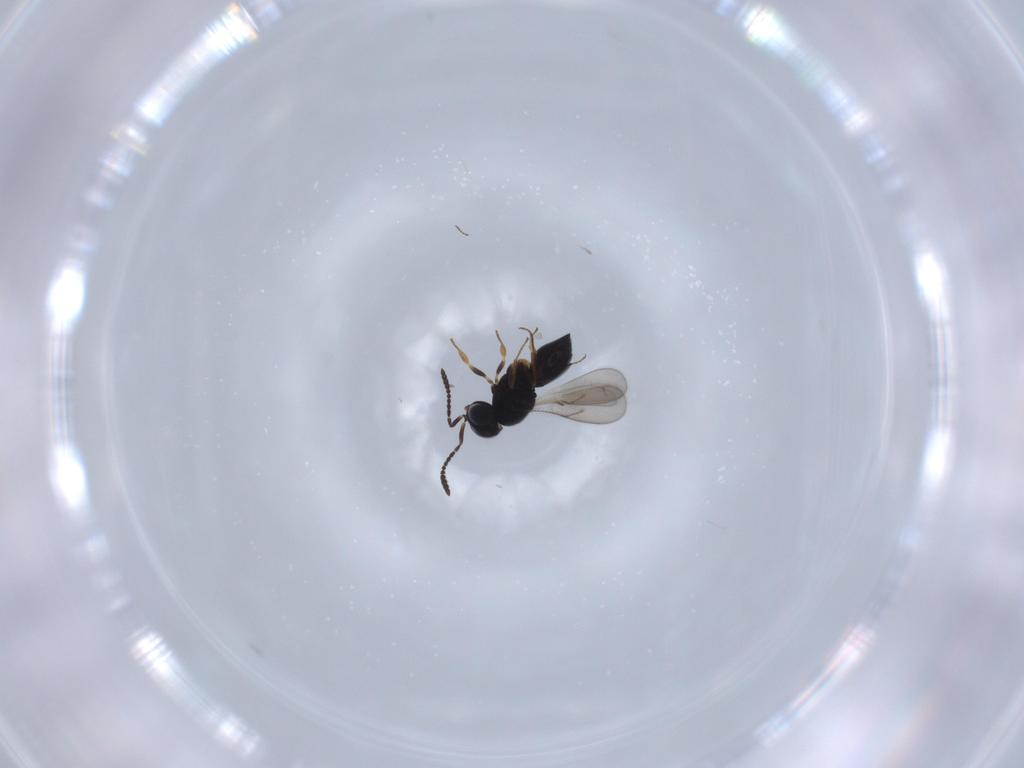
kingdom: Animalia
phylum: Arthropoda
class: Insecta
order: Hymenoptera
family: Scelionidae
